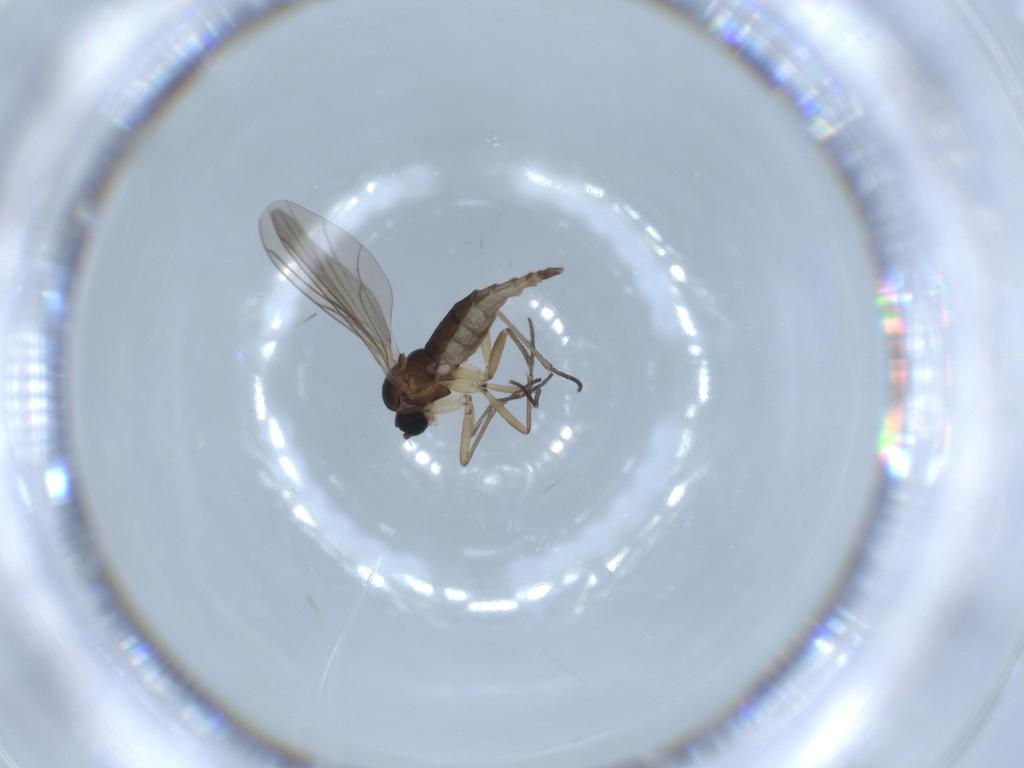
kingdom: Animalia
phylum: Arthropoda
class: Insecta
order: Diptera
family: Sciaridae
